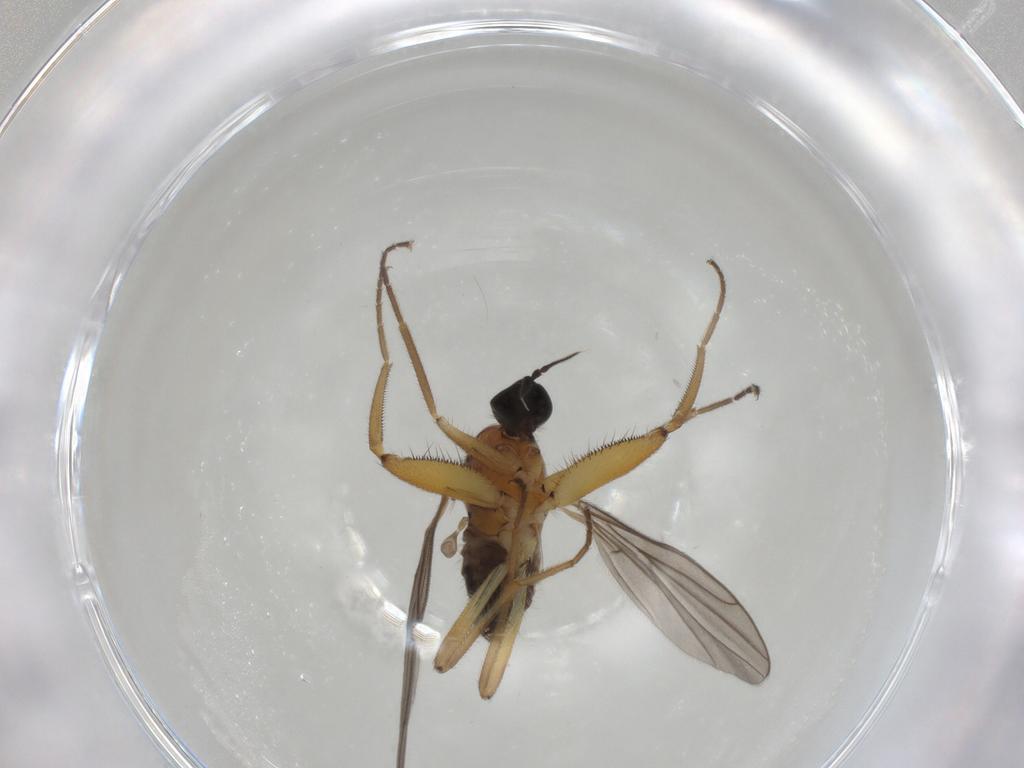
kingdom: Animalia
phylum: Arthropoda
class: Insecta
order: Diptera
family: Hybotidae
